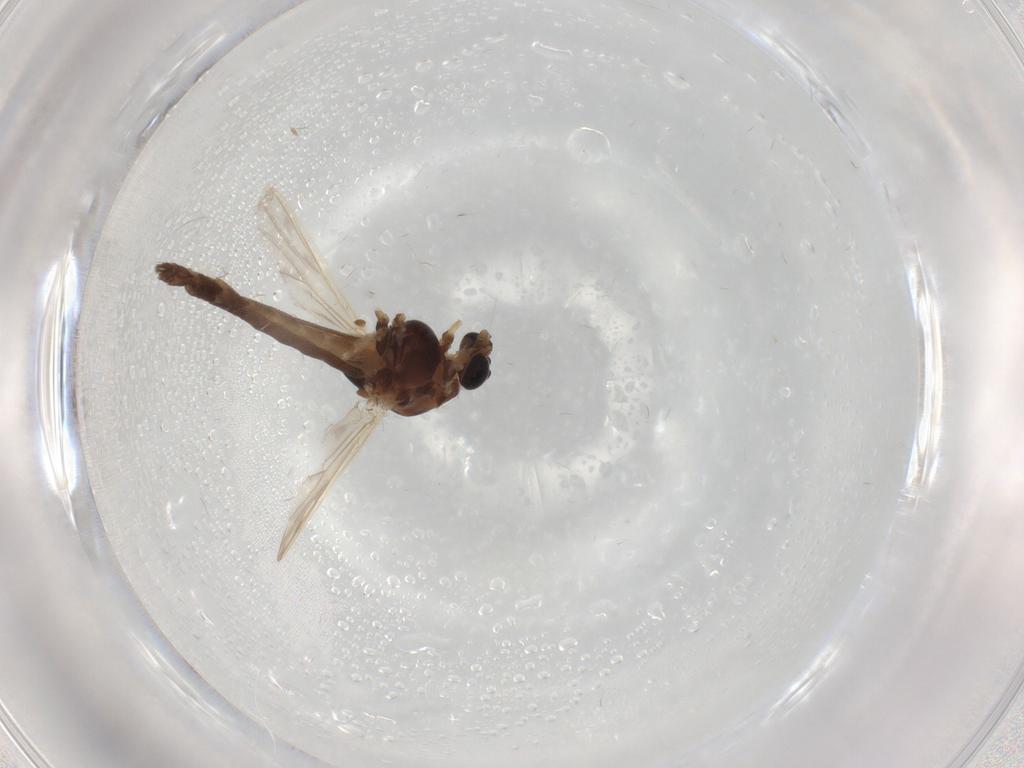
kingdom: Animalia
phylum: Arthropoda
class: Insecta
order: Diptera
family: Chironomidae
